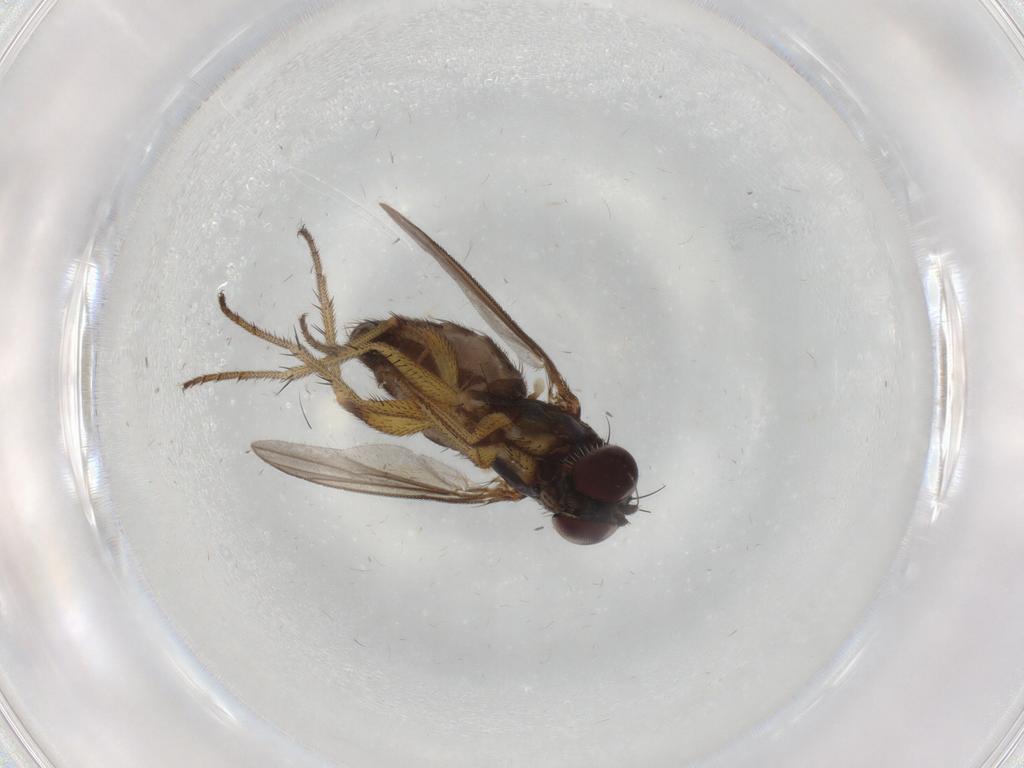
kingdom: Animalia
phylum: Arthropoda
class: Insecta
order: Diptera
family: Dolichopodidae
